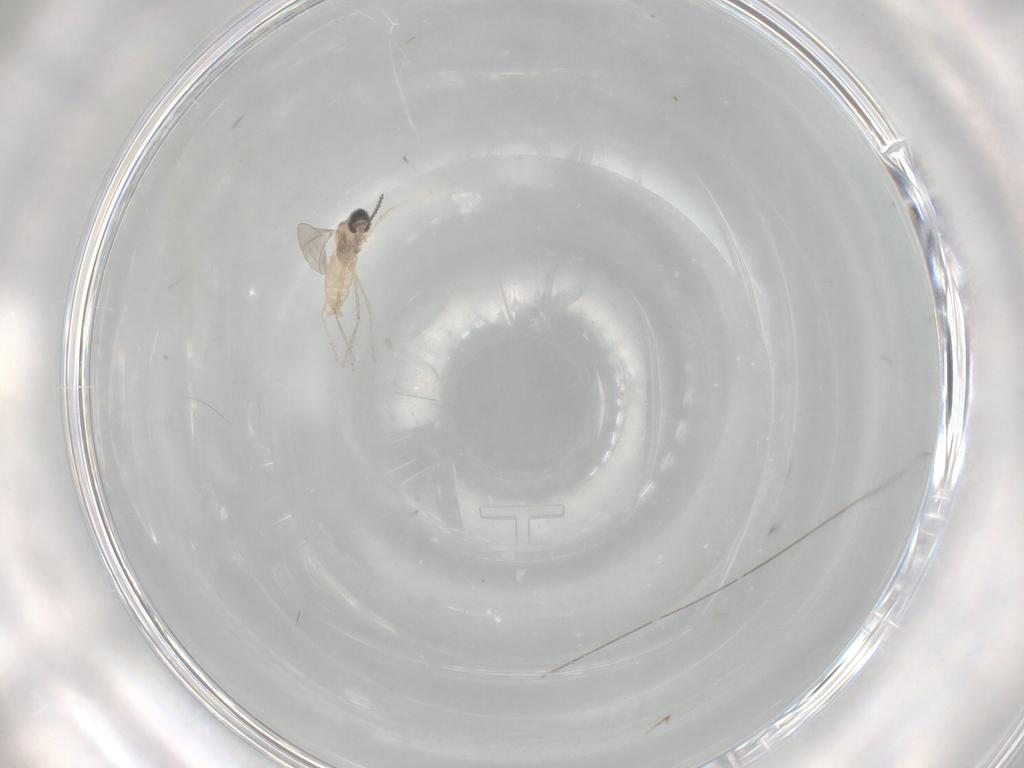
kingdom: Animalia
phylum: Arthropoda
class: Insecta
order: Diptera
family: Cecidomyiidae
